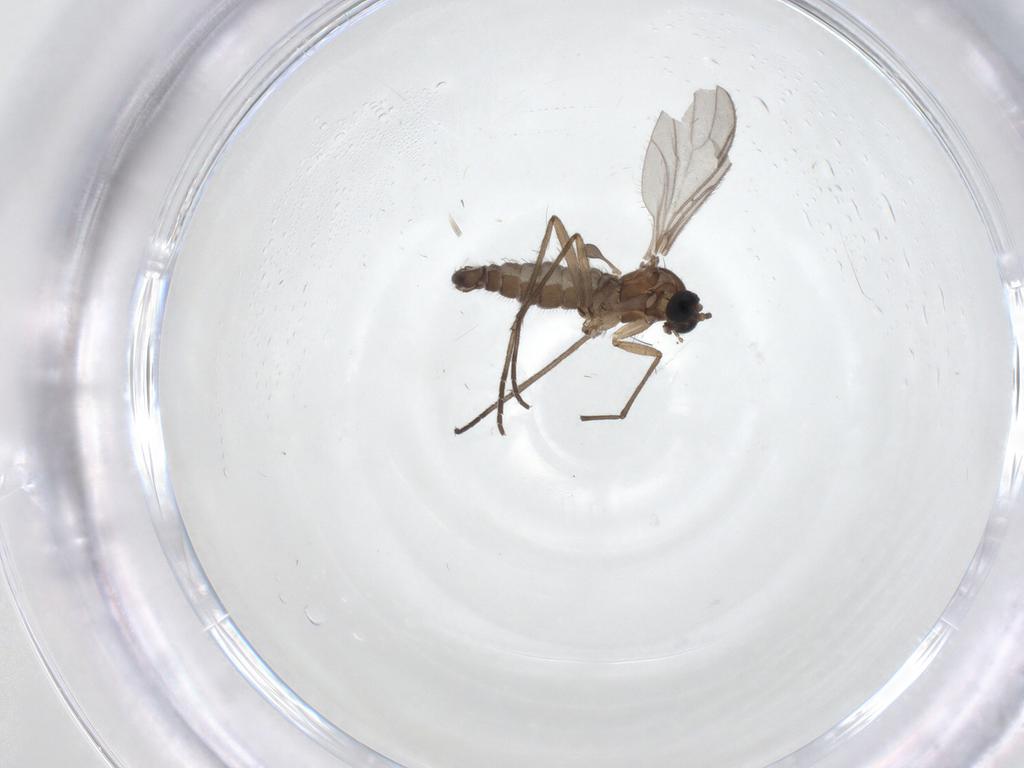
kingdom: Animalia
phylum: Arthropoda
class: Insecta
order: Diptera
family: Sciaridae
